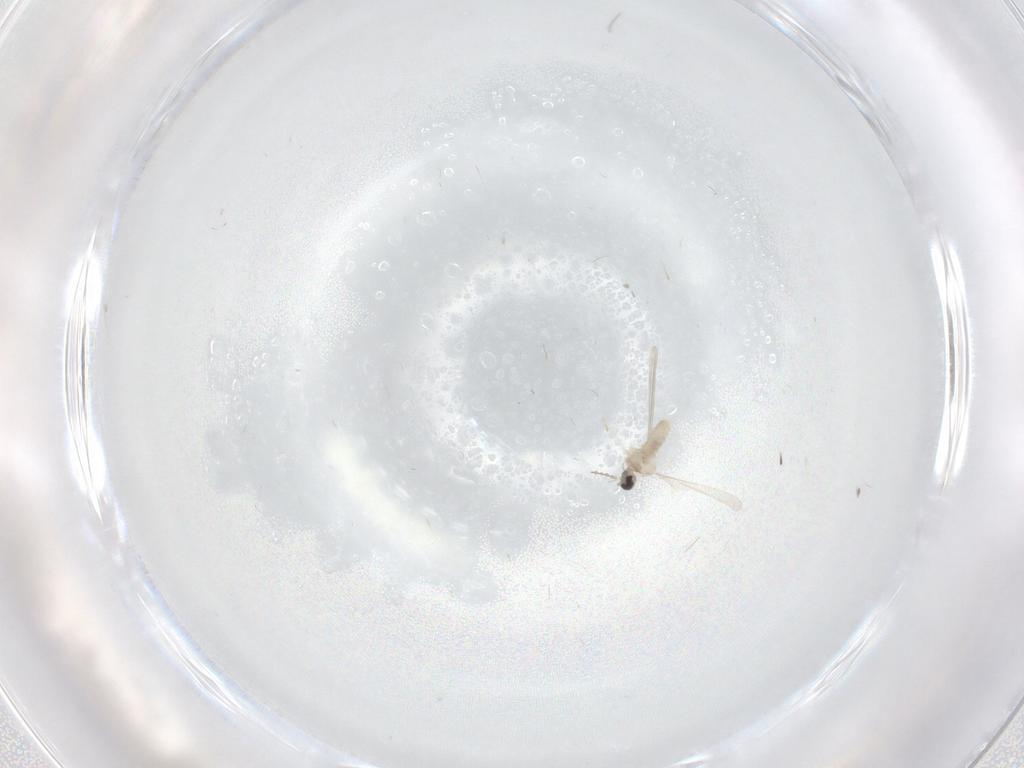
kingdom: Animalia
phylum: Arthropoda
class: Insecta
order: Diptera
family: Cecidomyiidae
